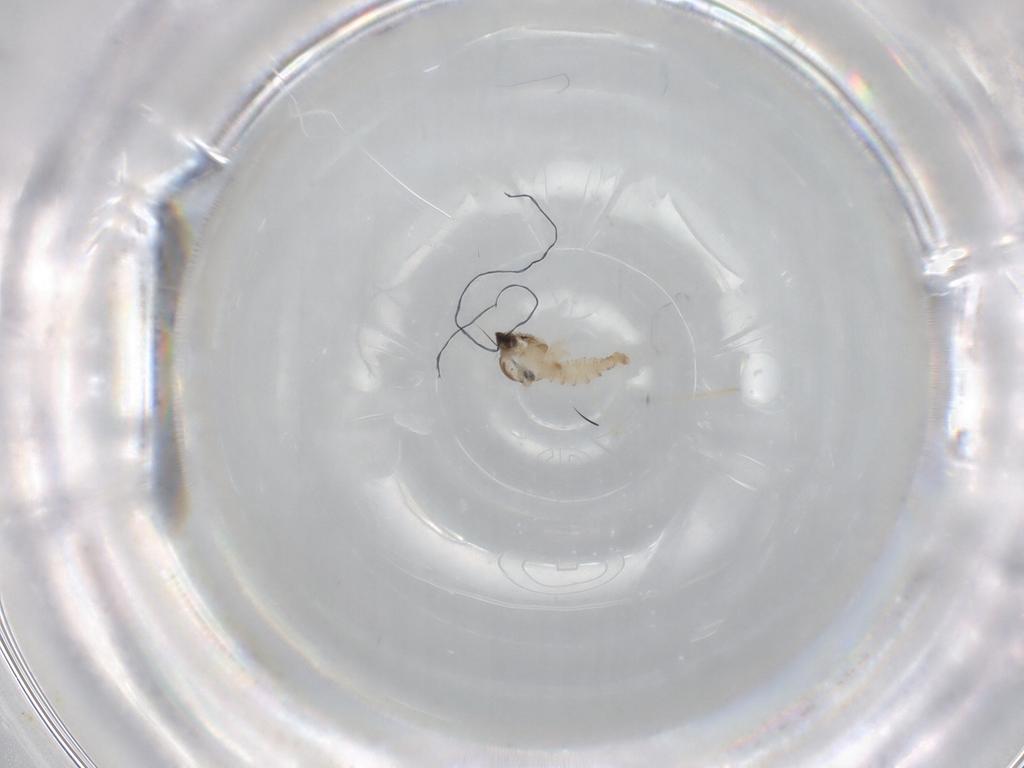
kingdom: Animalia
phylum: Arthropoda
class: Insecta
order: Diptera
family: Cecidomyiidae
